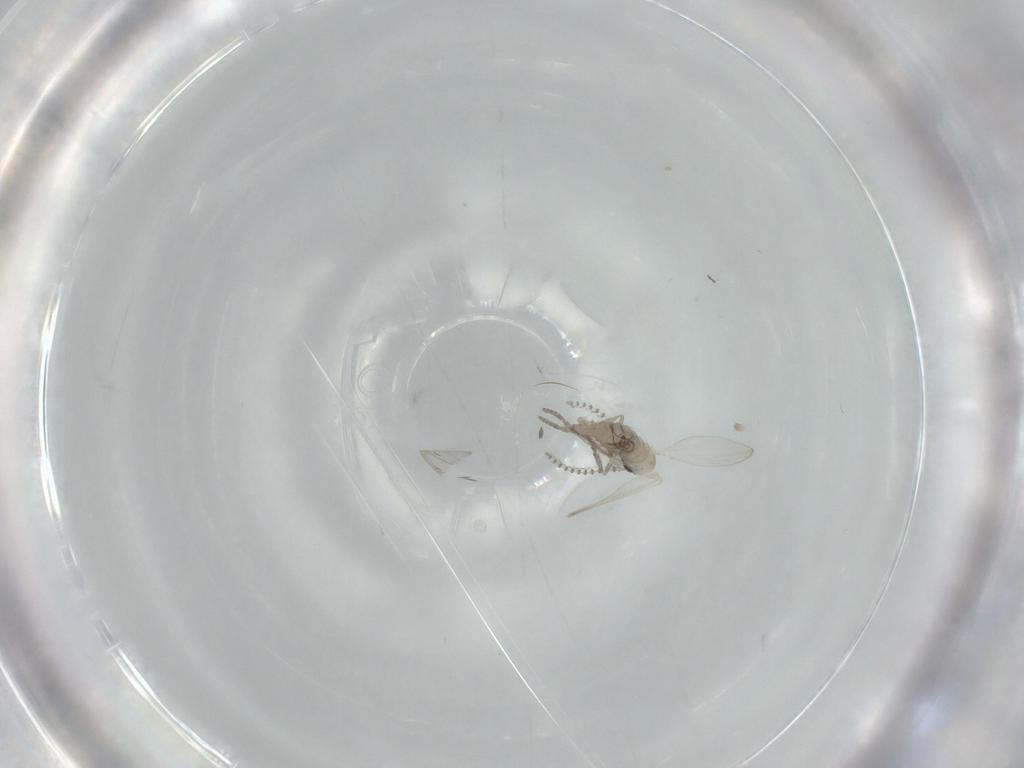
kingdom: Animalia
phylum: Arthropoda
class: Insecta
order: Diptera
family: Psychodidae
